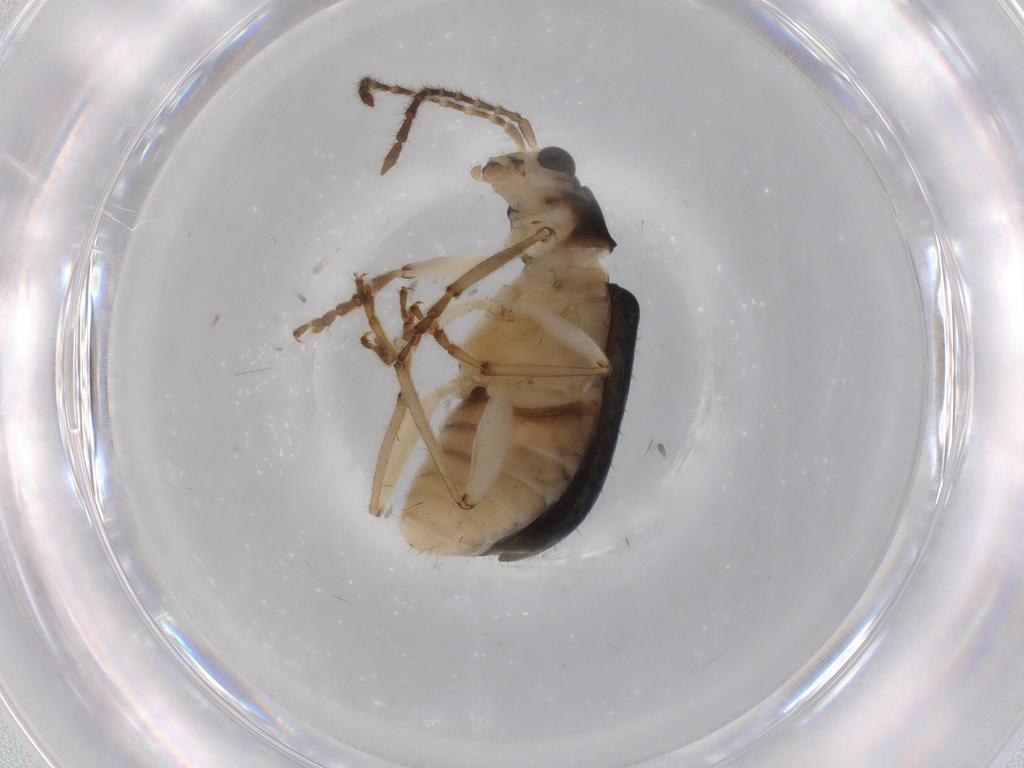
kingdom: Animalia
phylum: Arthropoda
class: Insecta
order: Coleoptera
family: Chrysomelidae
